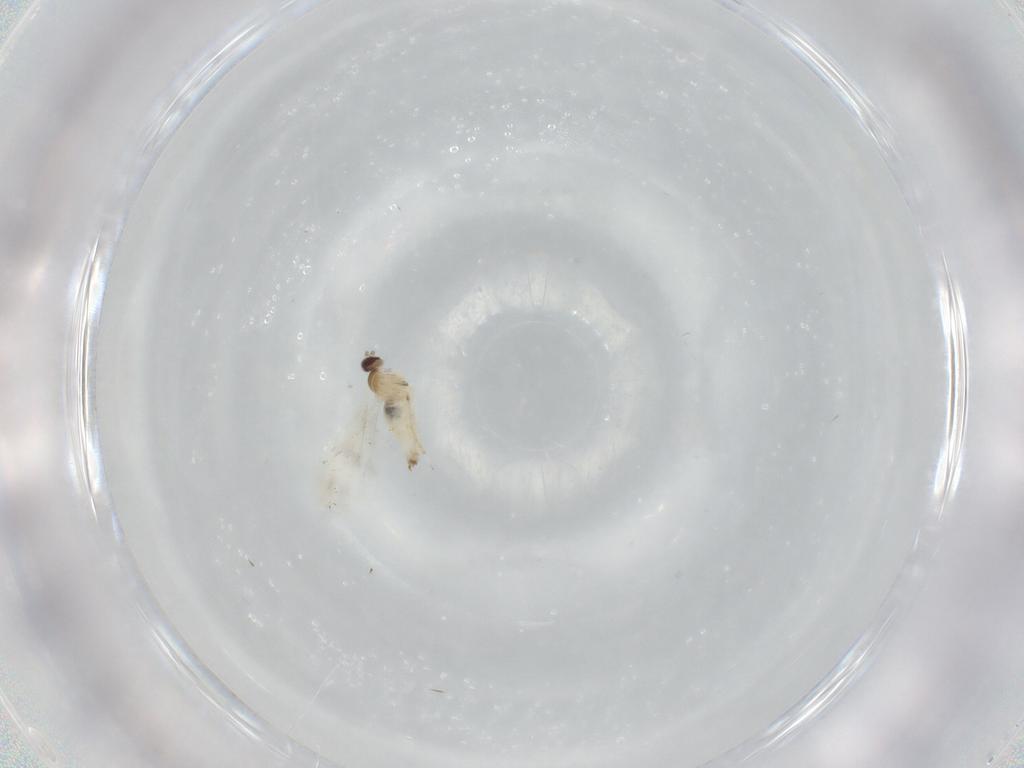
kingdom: Animalia
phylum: Arthropoda
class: Insecta
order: Diptera
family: Cecidomyiidae
